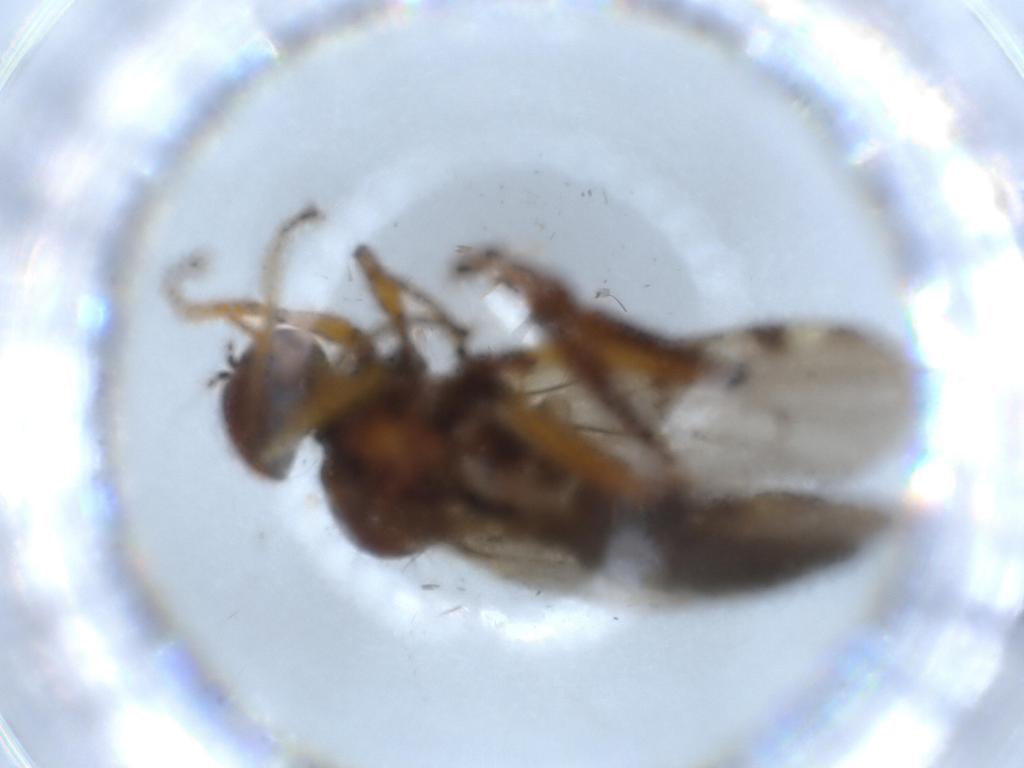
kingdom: Animalia
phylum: Arthropoda
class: Insecta
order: Diptera
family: Hybotidae
